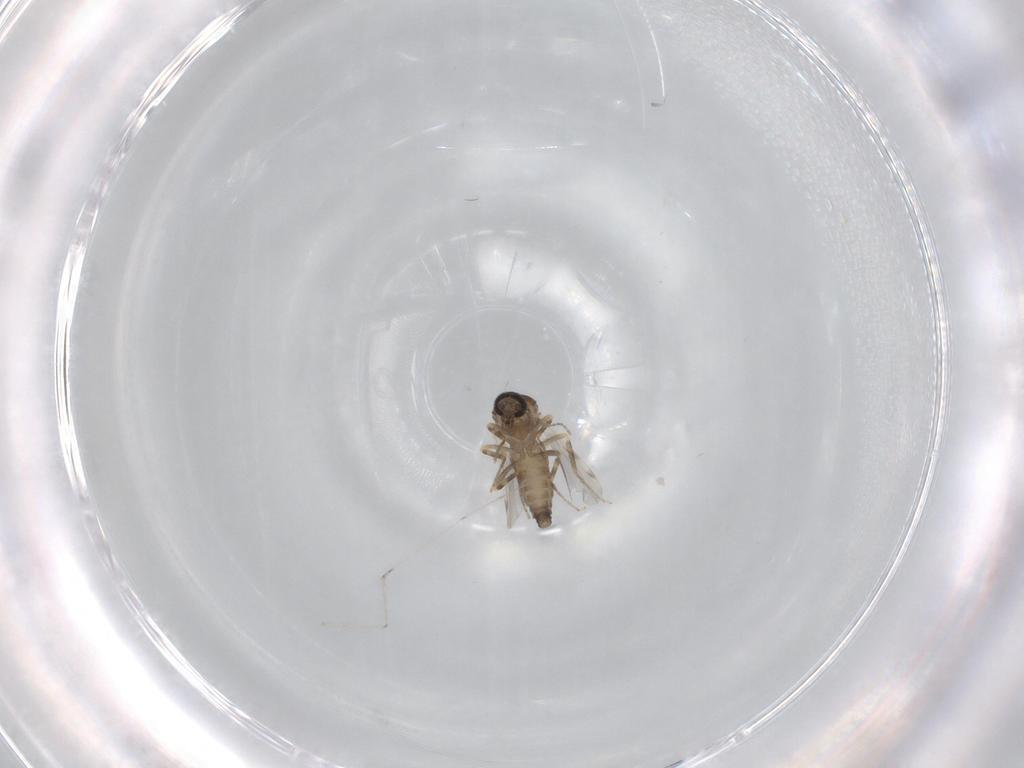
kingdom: Animalia
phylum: Arthropoda
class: Insecta
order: Diptera
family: Ceratopogonidae
